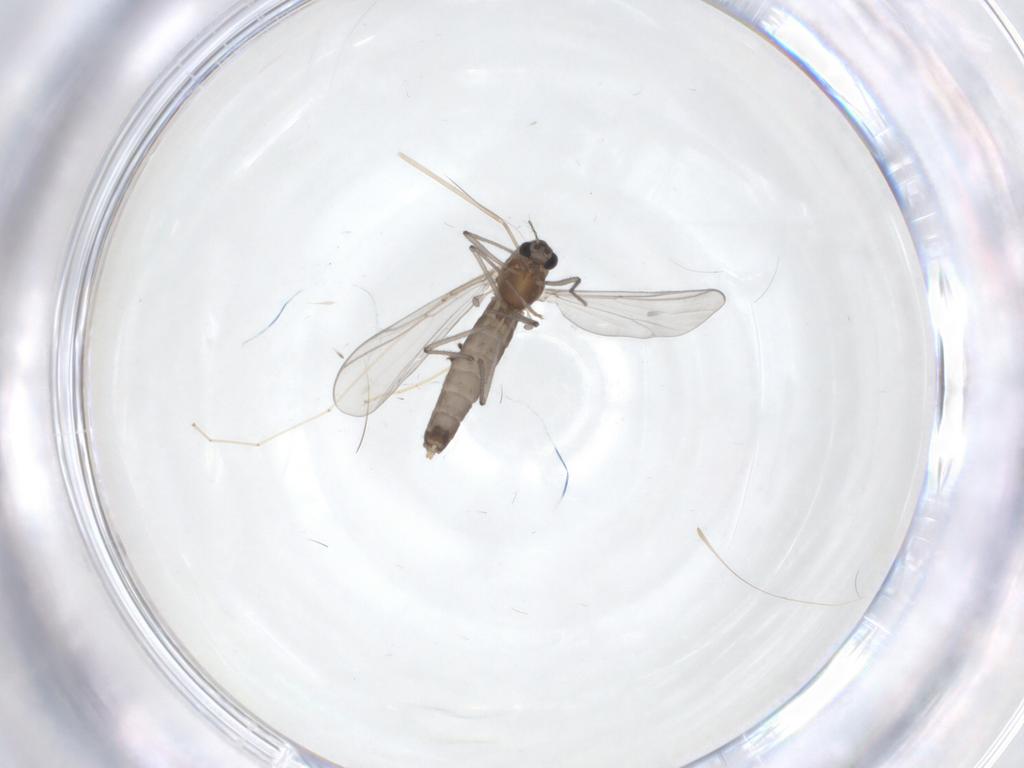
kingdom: Animalia
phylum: Arthropoda
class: Insecta
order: Diptera
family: Cecidomyiidae
